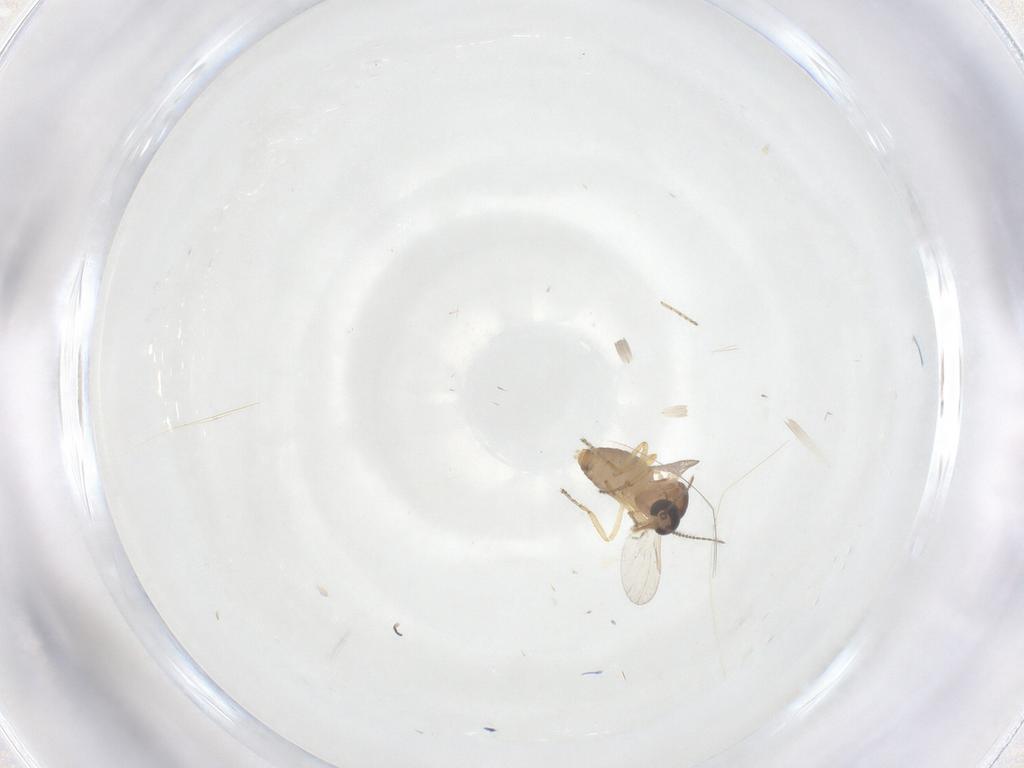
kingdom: Animalia
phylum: Arthropoda
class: Insecta
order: Diptera
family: Ceratopogonidae
